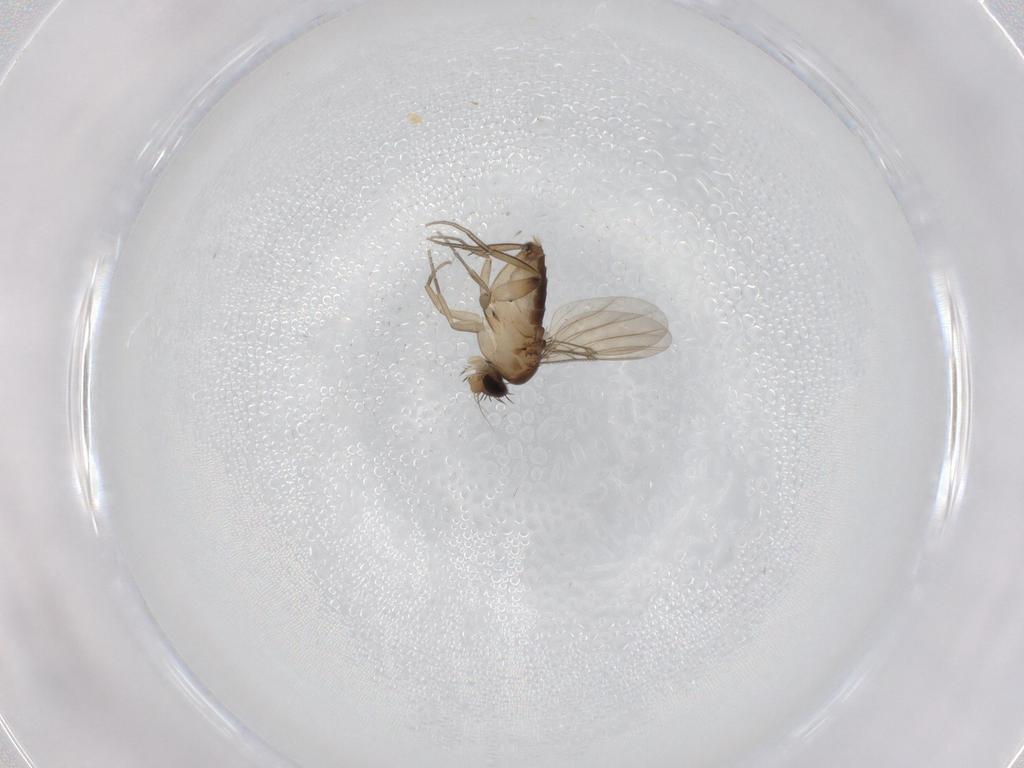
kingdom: Animalia
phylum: Arthropoda
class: Insecta
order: Diptera
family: Phoridae
